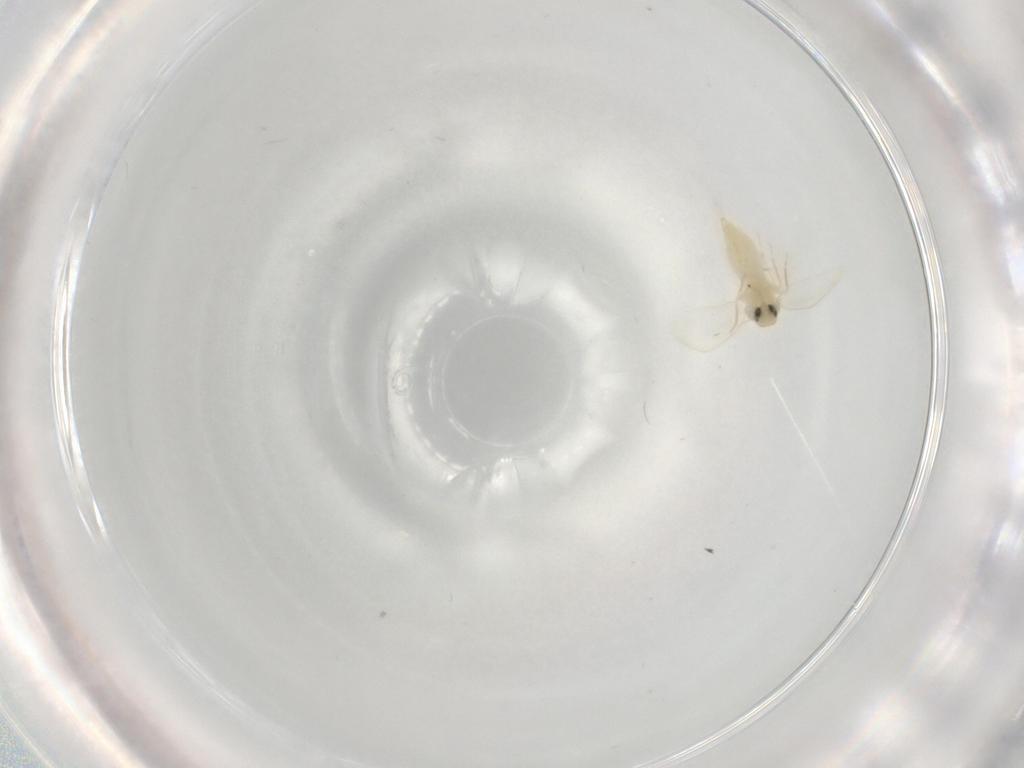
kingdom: Animalia
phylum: Arthropoda
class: Insecta
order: Hemiptera
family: Aleyrodidae
